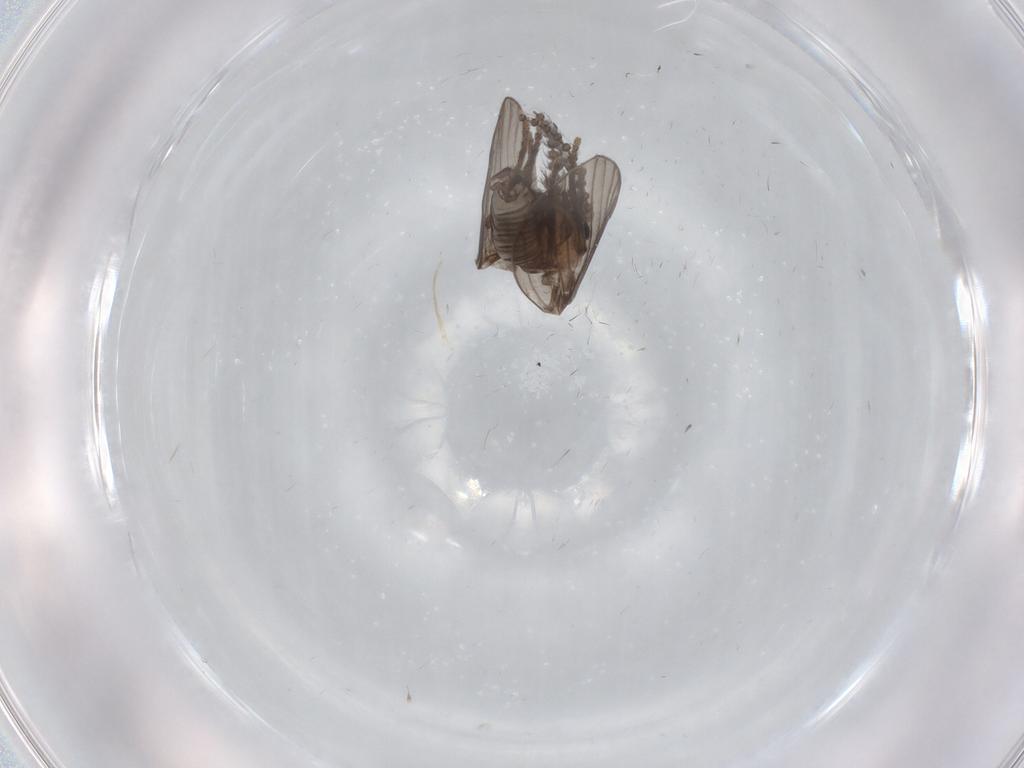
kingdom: Animalia
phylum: Arthropoda
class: Insecta
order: Diptera
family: Psychodidae
